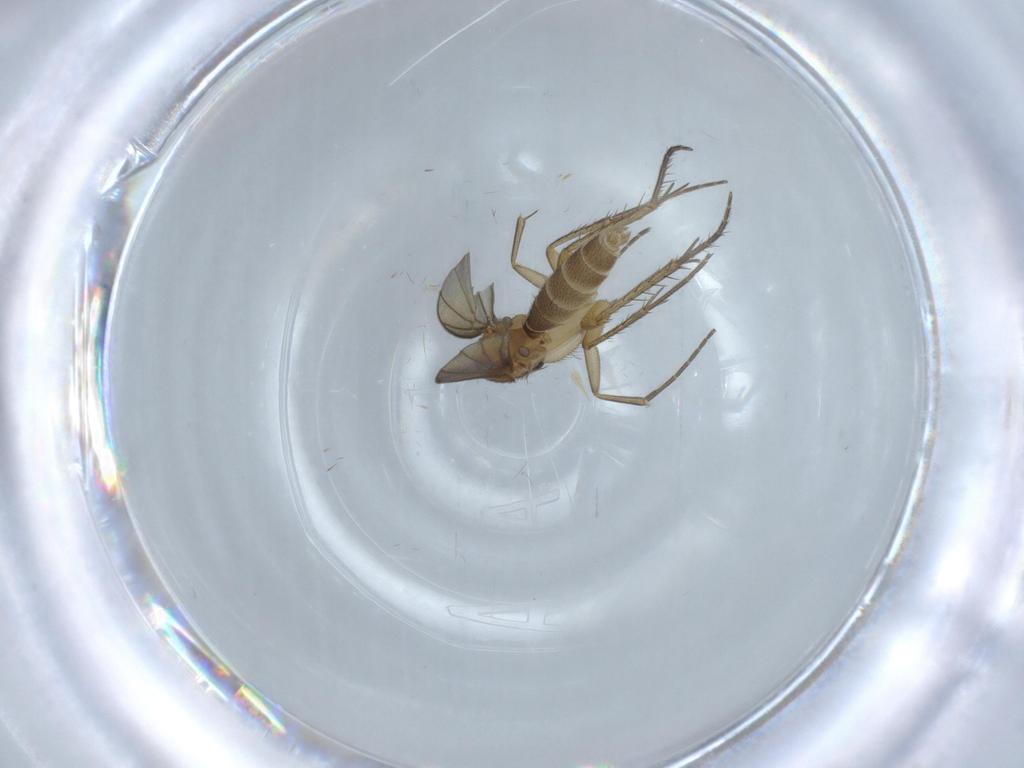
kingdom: Animalia
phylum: Arthropoda
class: Insecta
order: Diptera
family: Mycetophilidae
